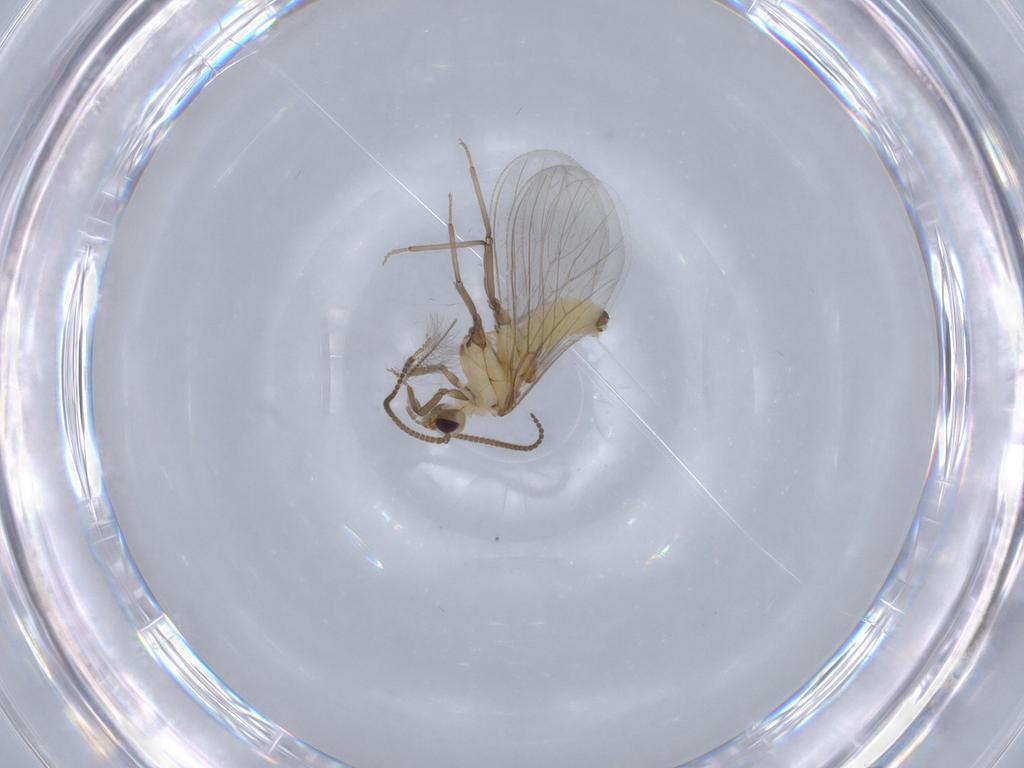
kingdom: Animalia
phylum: Arthropoda
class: Insecta
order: Neuroptera
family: Coniopterygidae
